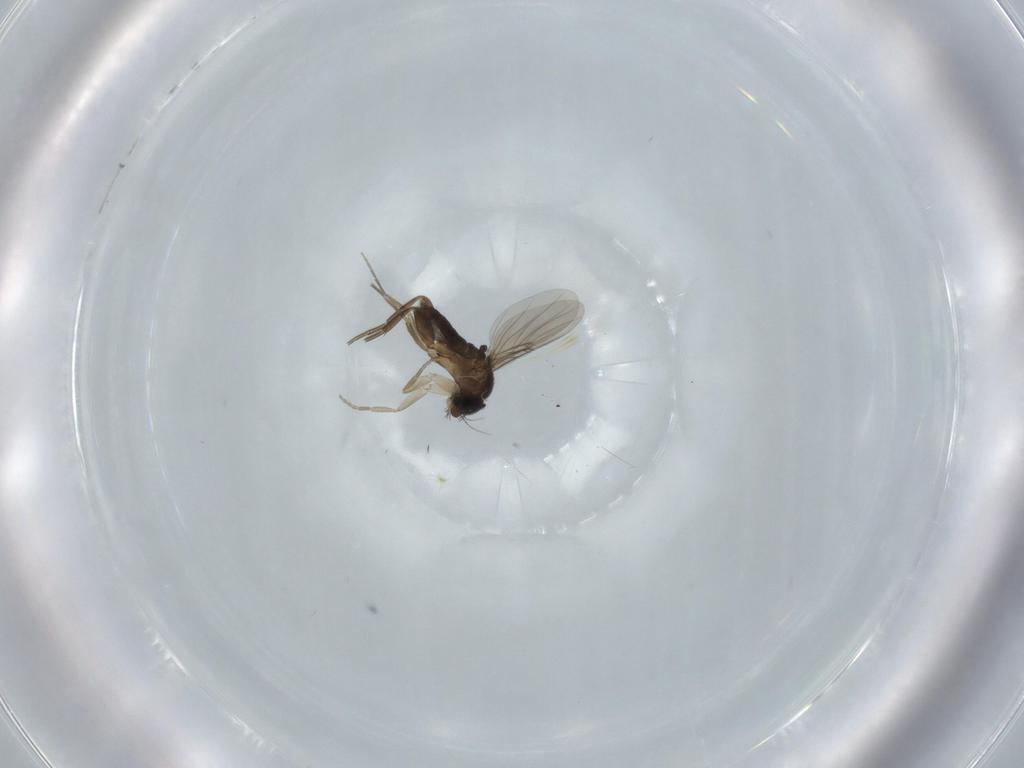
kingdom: Animalia
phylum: Arthropoda
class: Insecta
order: Diptera
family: Phoridae
